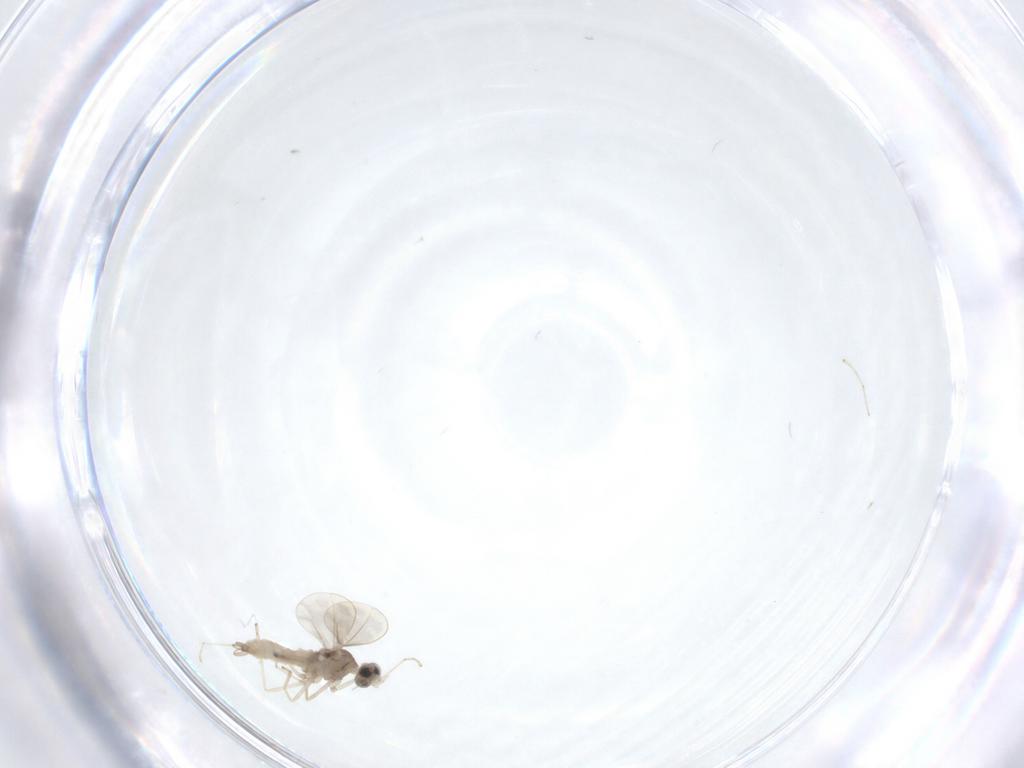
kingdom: Animalia
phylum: Arthropoda
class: Insecta
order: Diptera
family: Cecidomyiidae
